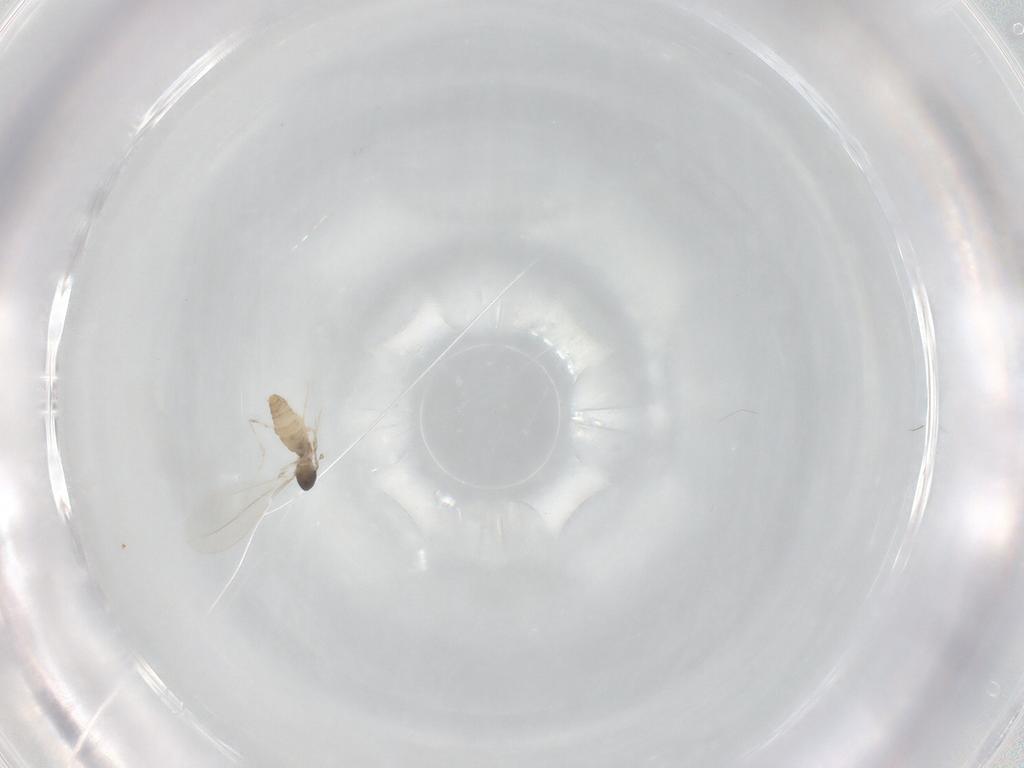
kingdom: Animalia
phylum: Arthropoda
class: Insecta
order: Diptera
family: Cecidomyiidae
